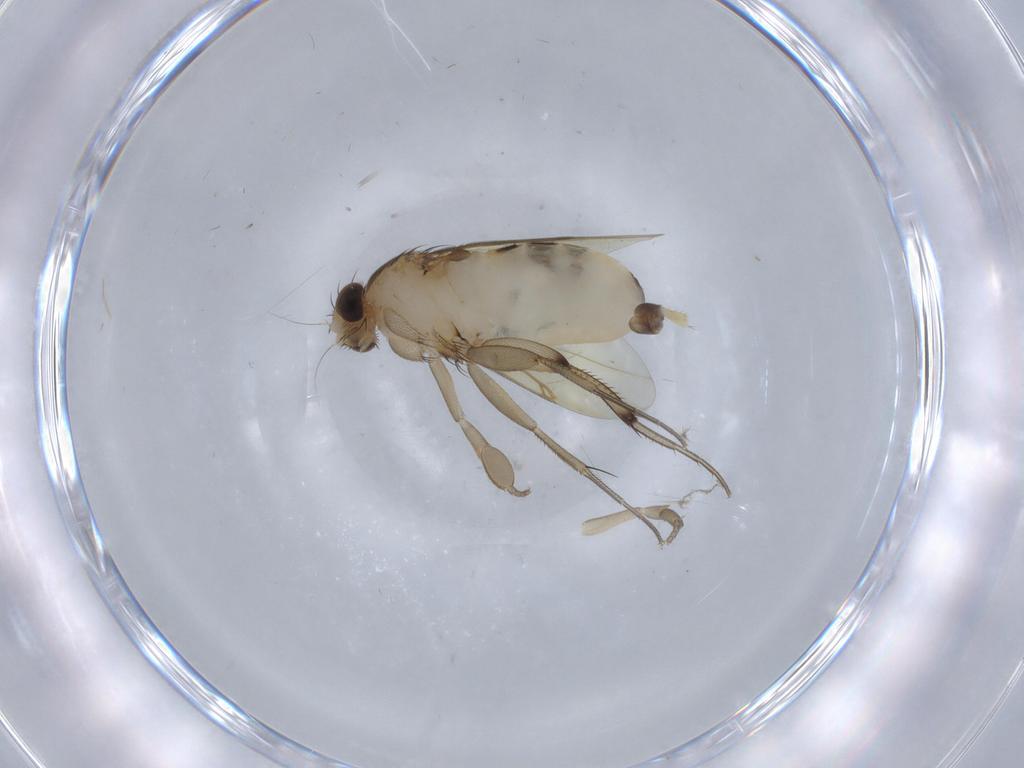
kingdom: Animalia
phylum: Arthropoda
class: Insecta
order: Diptera
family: Phoridae
